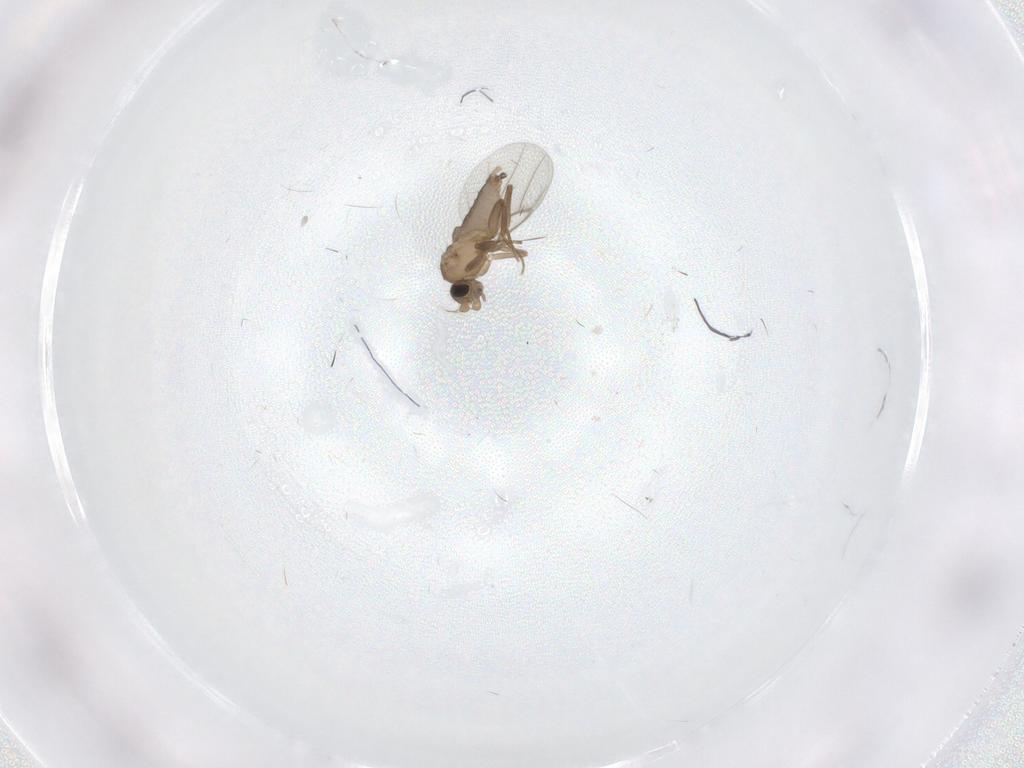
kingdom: Animalia
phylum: Arthropoda
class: Insecta
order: Diptera
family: Ceratopogonidae
